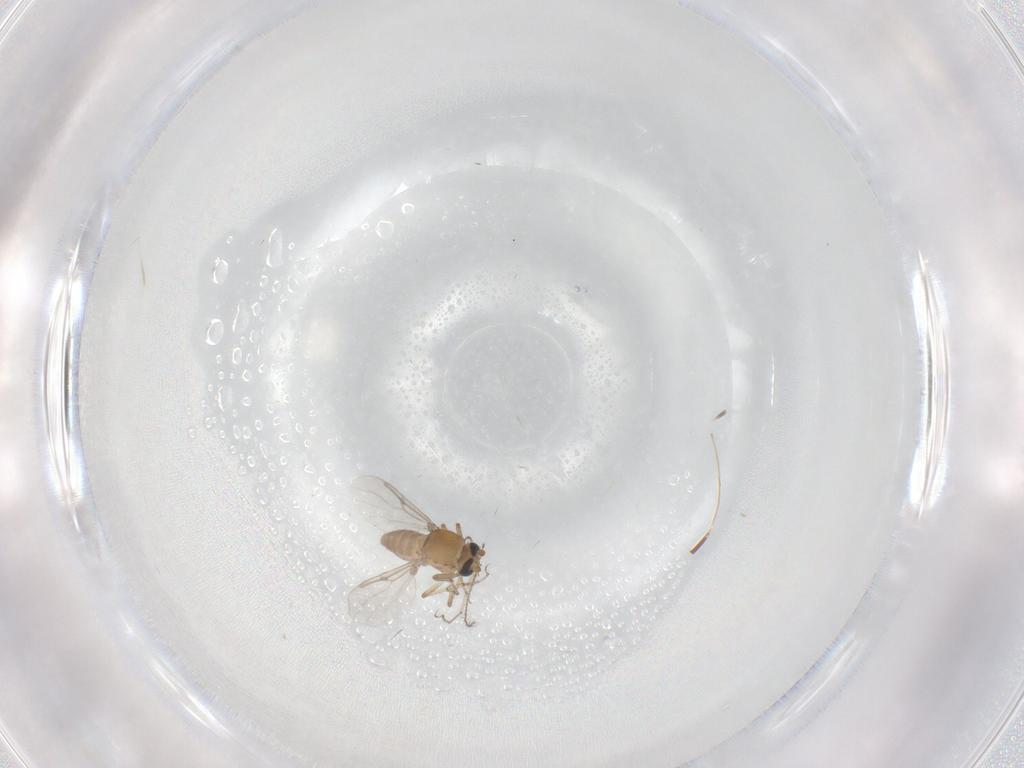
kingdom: Animalia
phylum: Arthropoda
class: Insecta
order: Diptera
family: Ceratopogonidae
